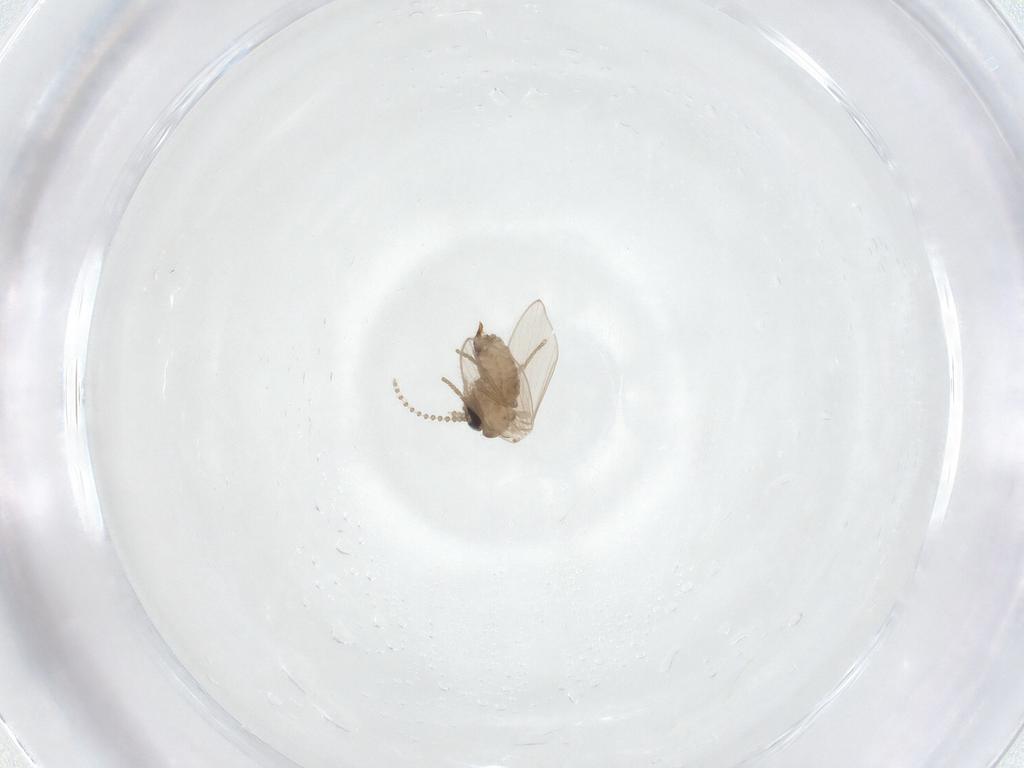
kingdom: Animalia
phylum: Arthropoda
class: Insecta
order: Diptera
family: Psychodidae
